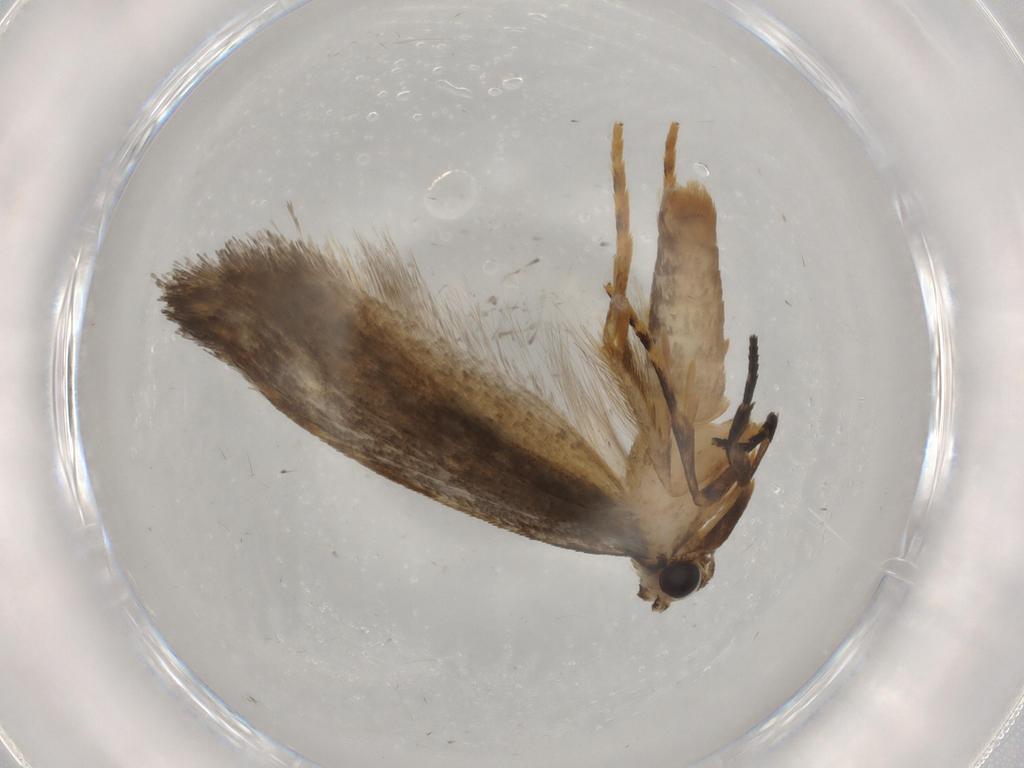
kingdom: Animalia
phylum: Arthropoda
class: Insecta
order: Lepidoptera
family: Tineidae
